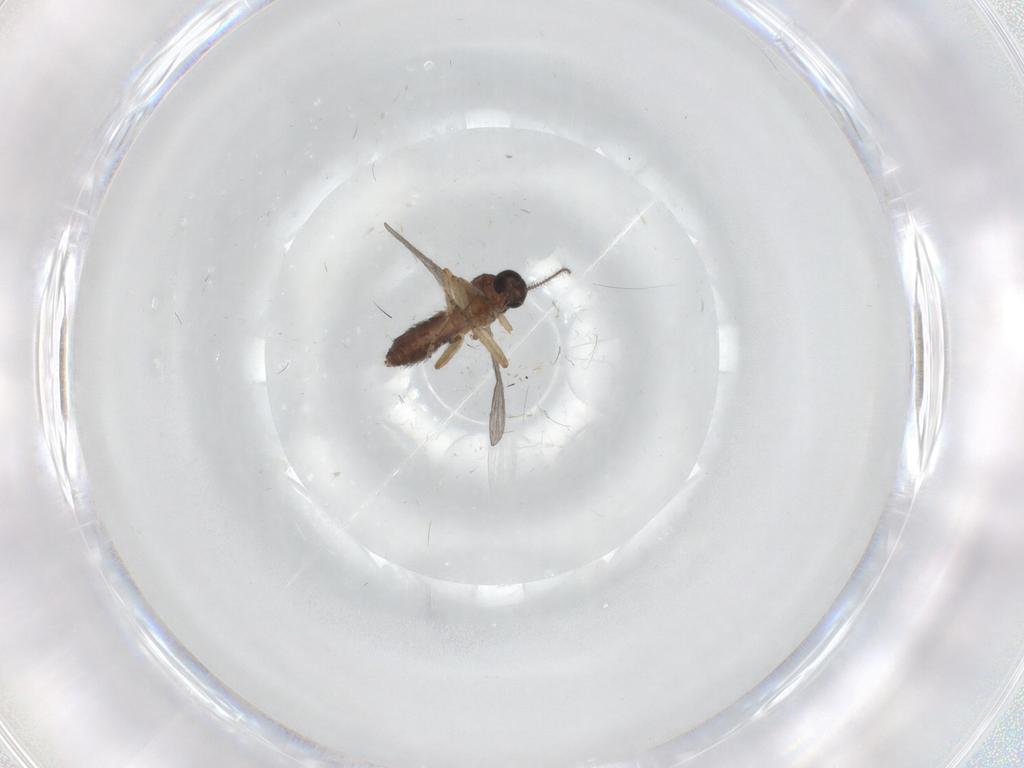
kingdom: Animalia
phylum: Arthropoda
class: Insecta
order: Diptera
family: Ceratopogonidae
